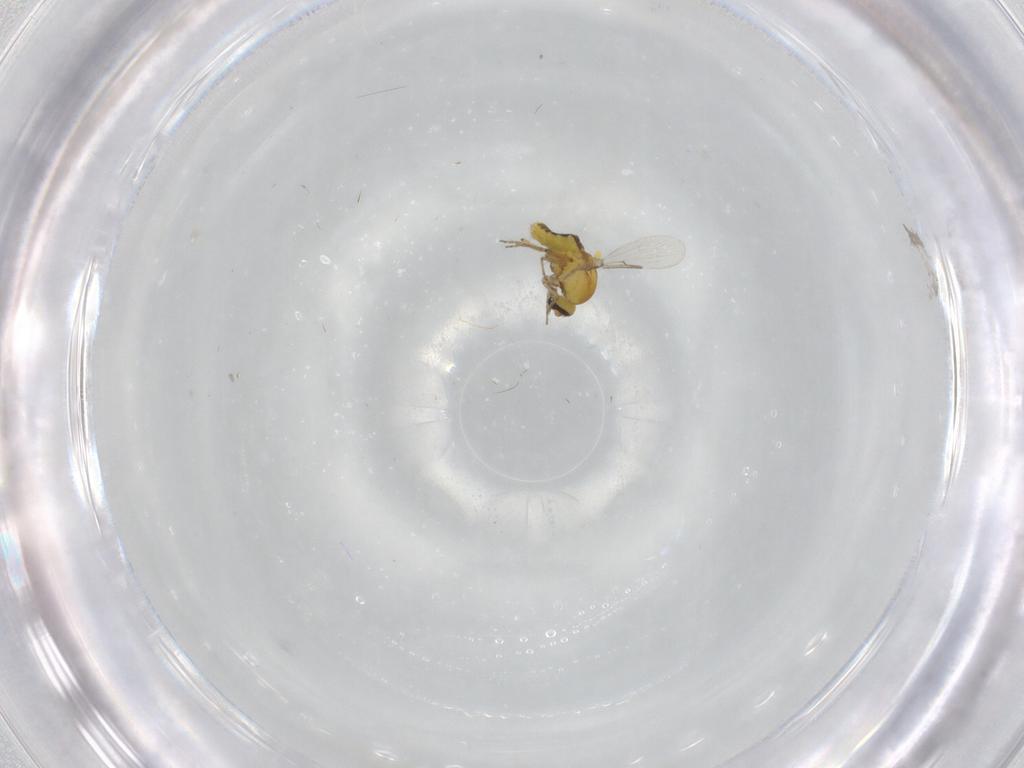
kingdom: Animalia
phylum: Arthropoda
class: Insecta
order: Diptera
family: Ceratopogonidae
